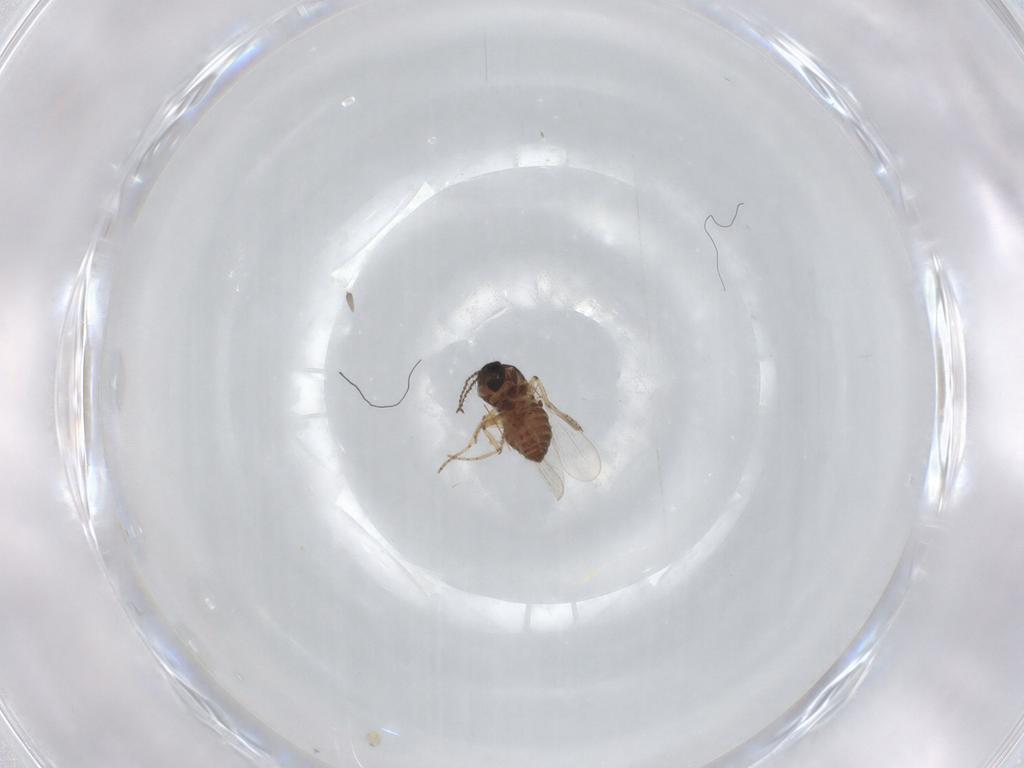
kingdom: Animalia
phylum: Arthropoda
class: Insecta
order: Diptera
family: Ceratopogonidae
